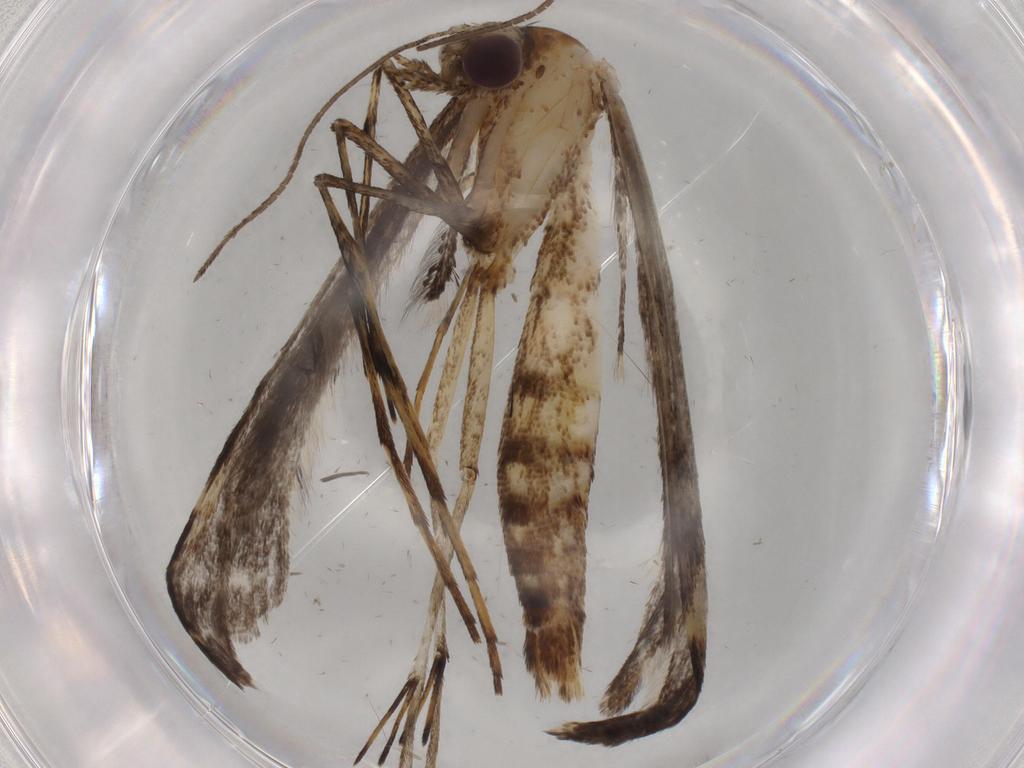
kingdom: Animalia
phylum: Arthropoda
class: Insecta
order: Lepidoptera
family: Pterophoridae
